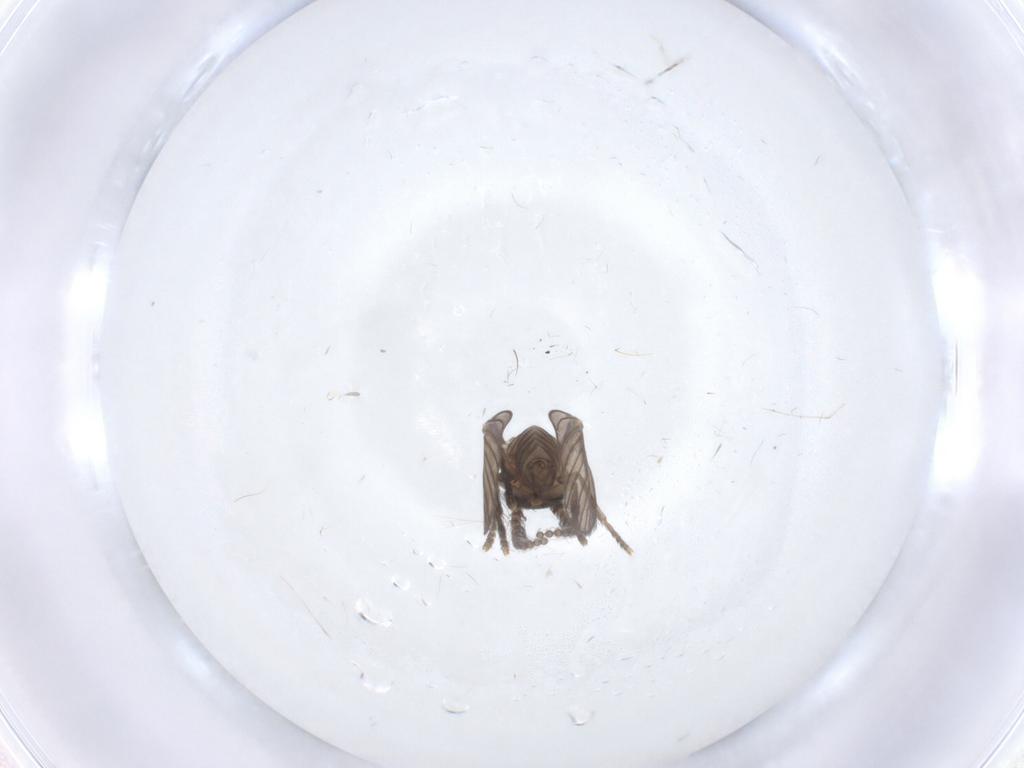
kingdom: Animalia
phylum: Arthropoda
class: Insecta
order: Diptera
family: Psychodidae
